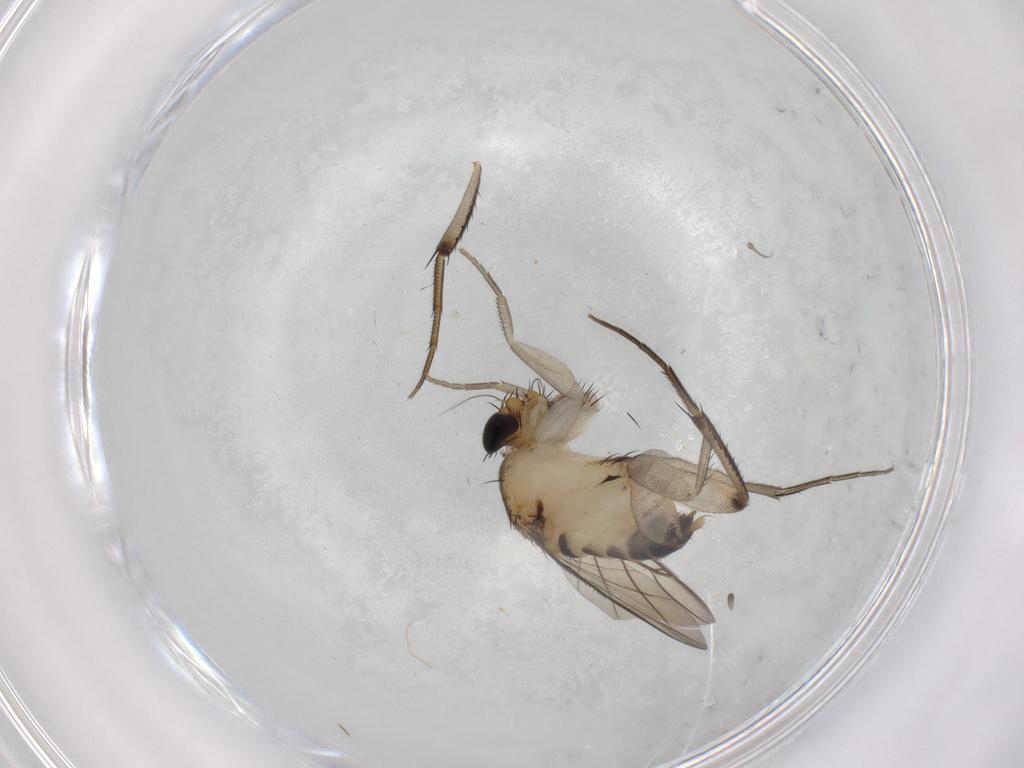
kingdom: Animalia
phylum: Arthropoda
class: Insecta
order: Diptera
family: Phoridae
